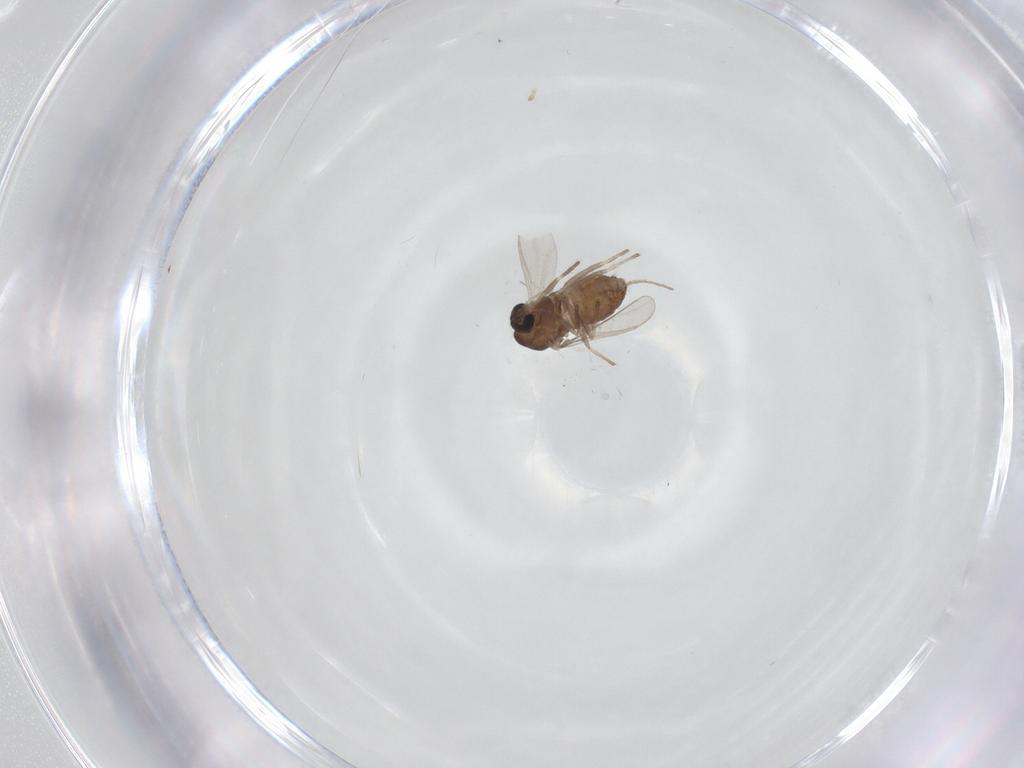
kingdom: Animalia
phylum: Arthropoda
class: Insecta
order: Diptera
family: Chironomidae
